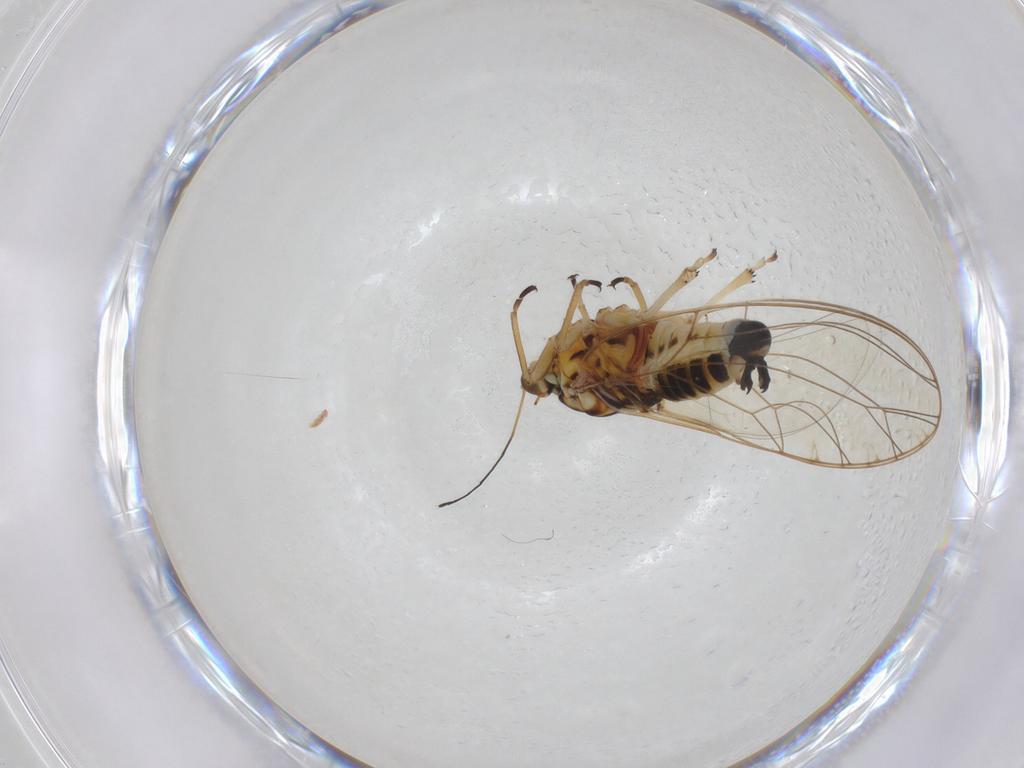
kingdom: Animalia
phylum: Arthropoda
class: Insecta
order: Hemiptera
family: Triozidae
